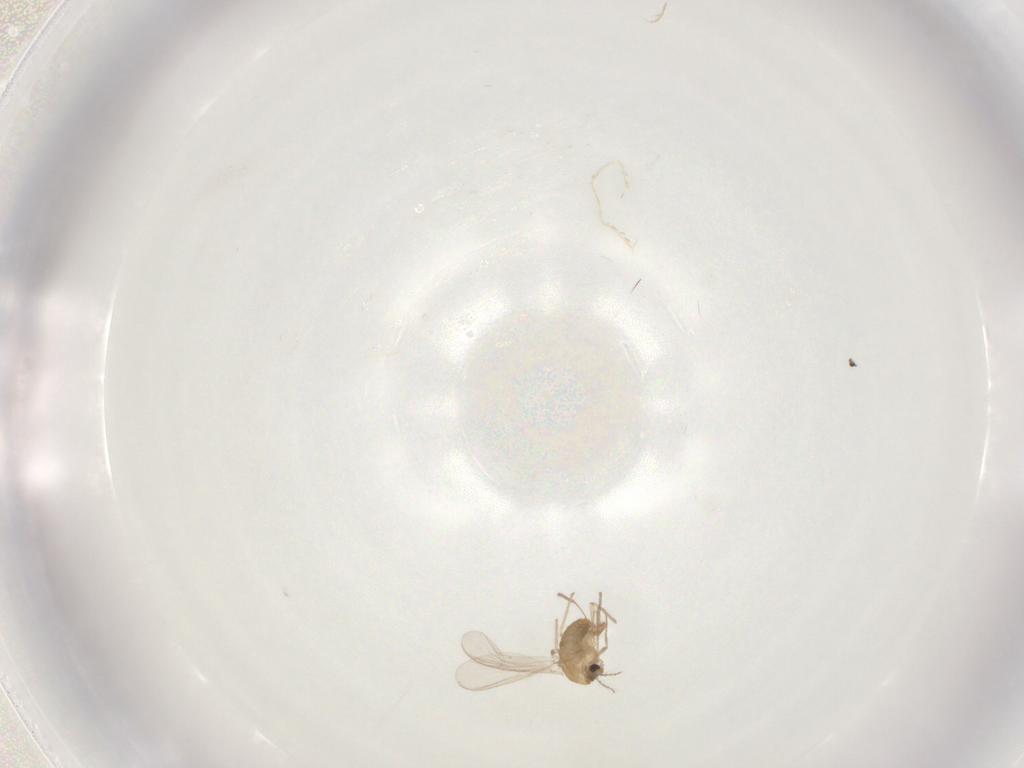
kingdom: Animalia
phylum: Arthropoda
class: Insecta
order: Diptera
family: Chironomidae
